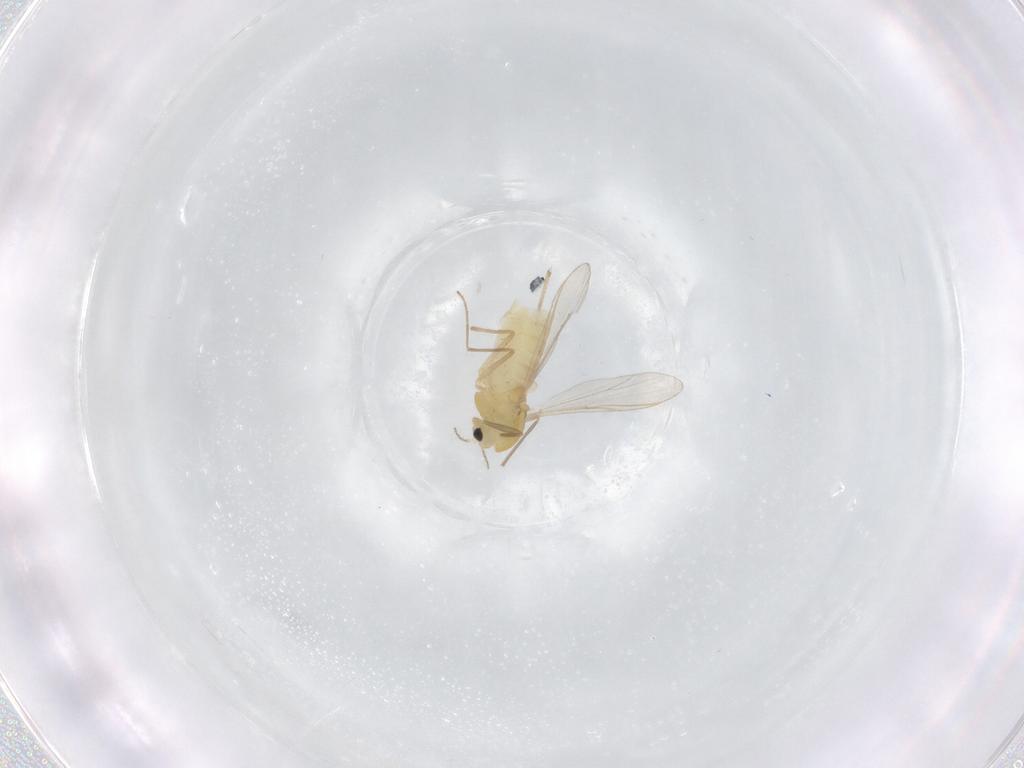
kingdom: Animalia
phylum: Arthropoda
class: Insecta
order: Diptera
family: Chironomidae
